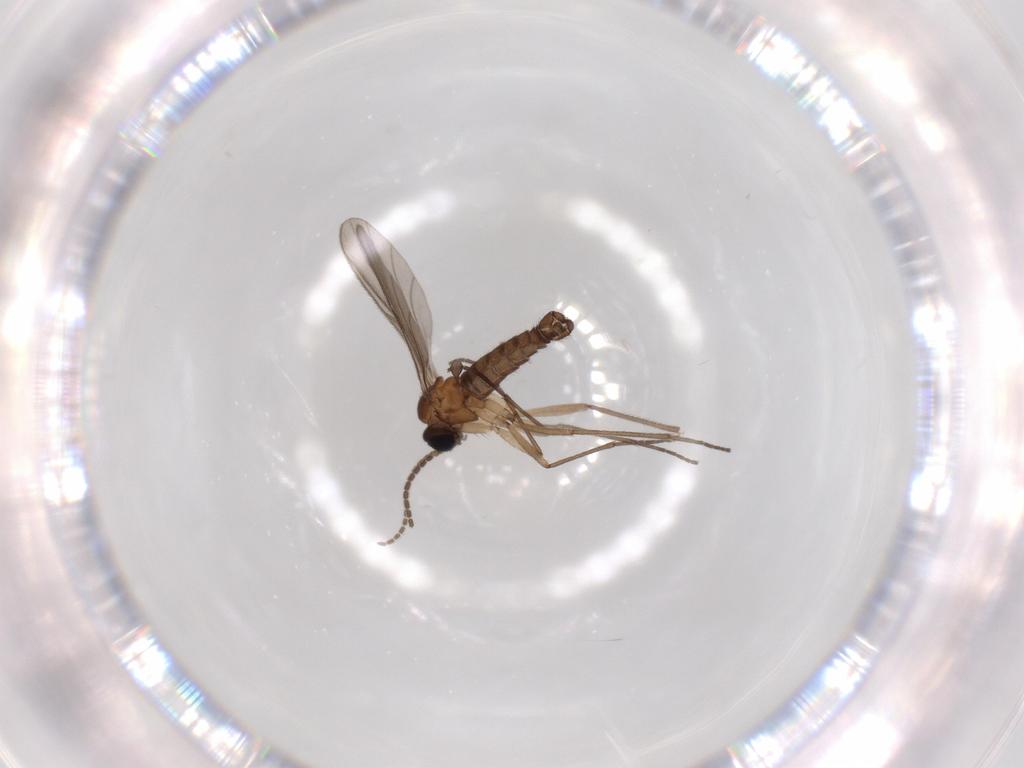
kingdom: Animalia
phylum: Arthropoda
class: Insecta
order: Diptera
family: Sciaridae
